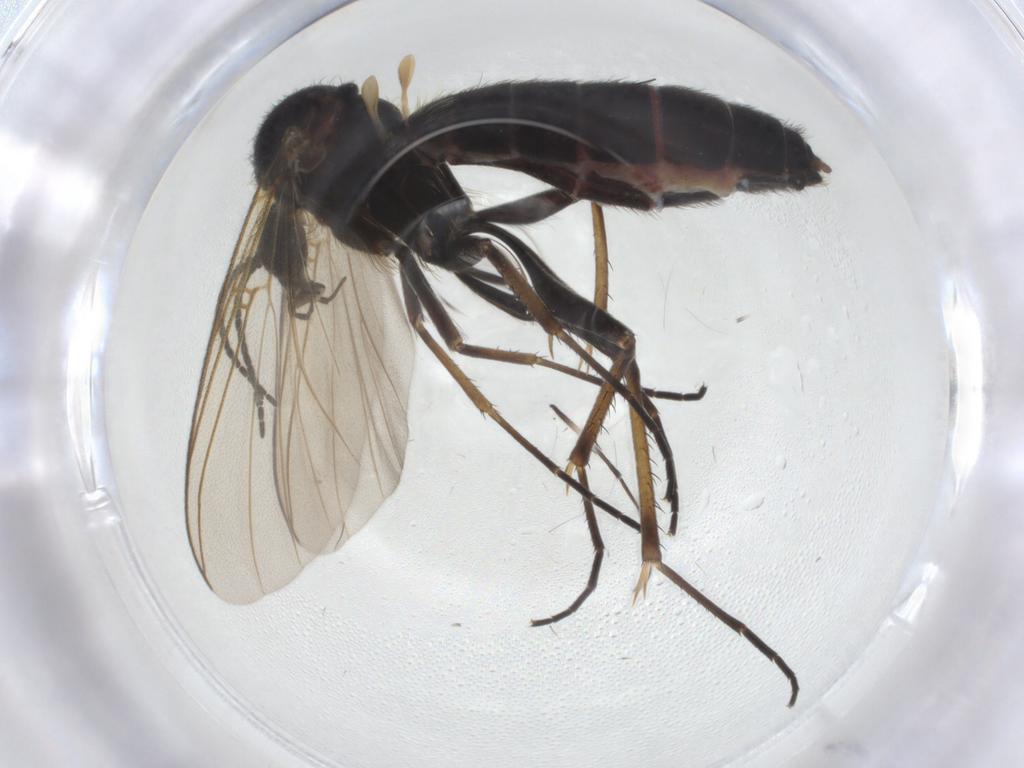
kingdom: Animalia
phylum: Arthropoda
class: Insecta
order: Diptera
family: Mycetophilidae
